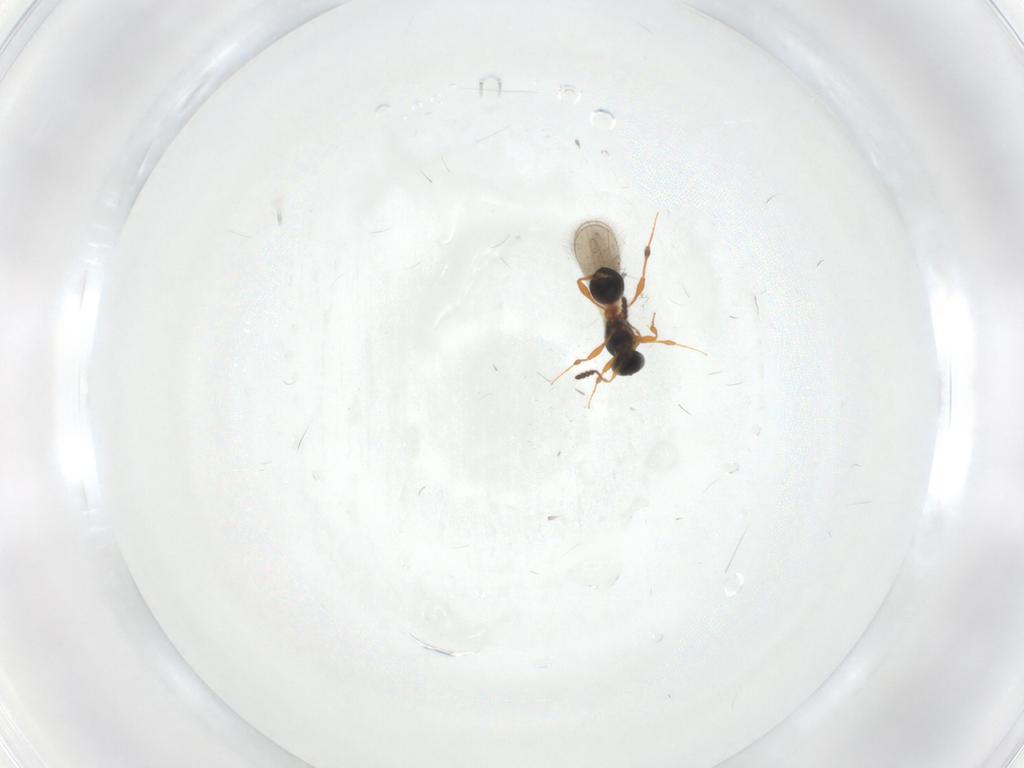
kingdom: Animalia
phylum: Arthropoda
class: Insecta
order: Hymenoptera
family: Platygastridae
